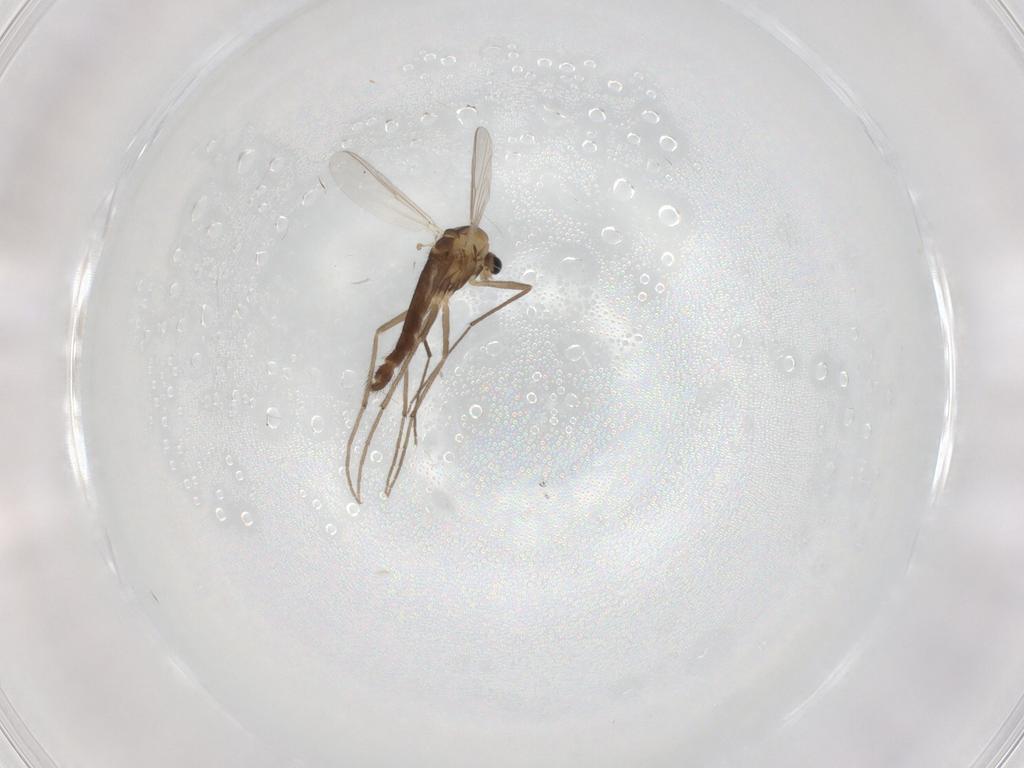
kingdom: Animalia
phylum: Arthropoda
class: Insecta
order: Diptera
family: Chironomidae
